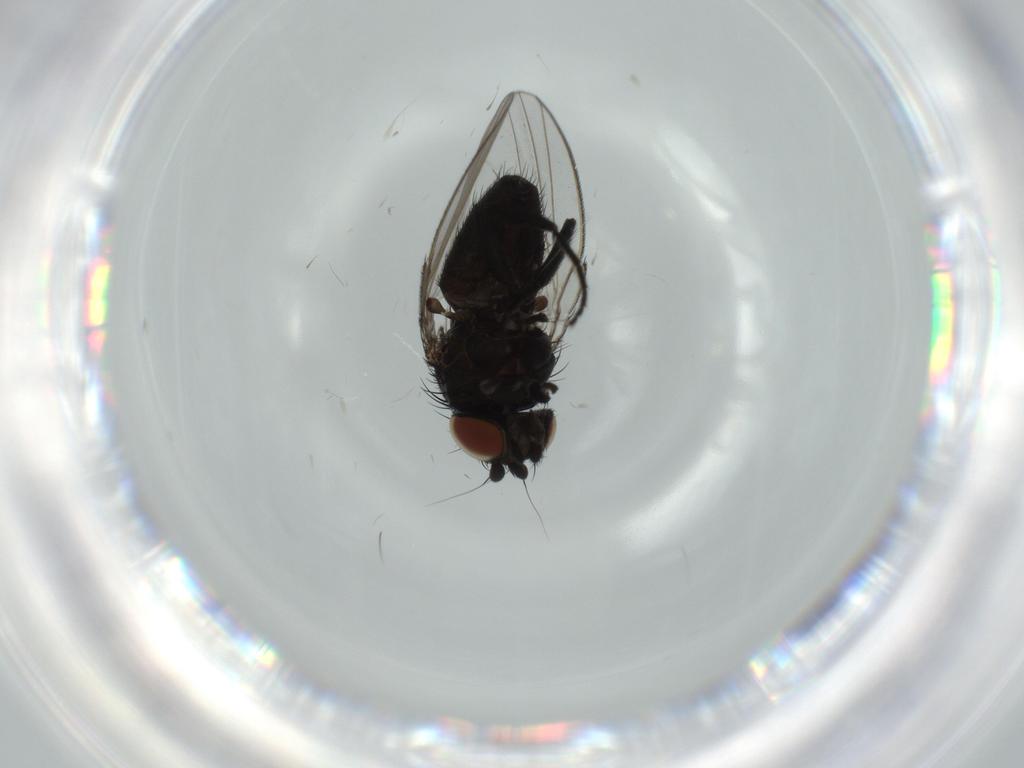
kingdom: Animalia
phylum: Arthropoda
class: Insecta
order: Diptera
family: Milichiidae
